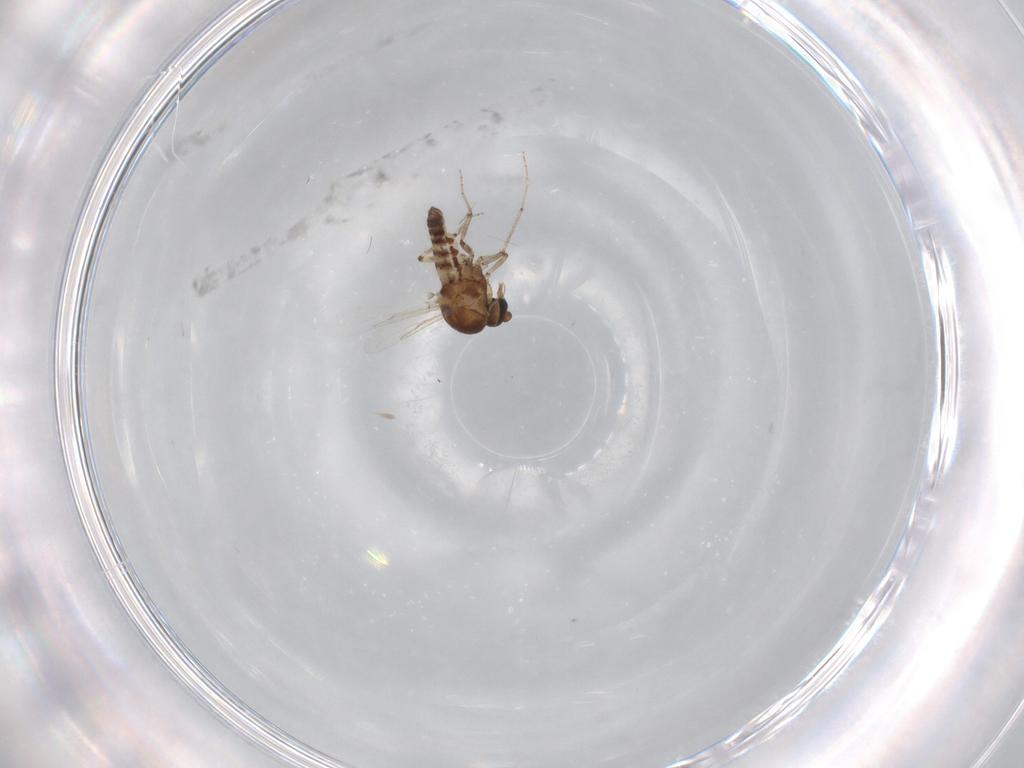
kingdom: Animalia
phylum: Arthropoda
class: Insecta
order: Diptera
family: Ceratopogonidae
